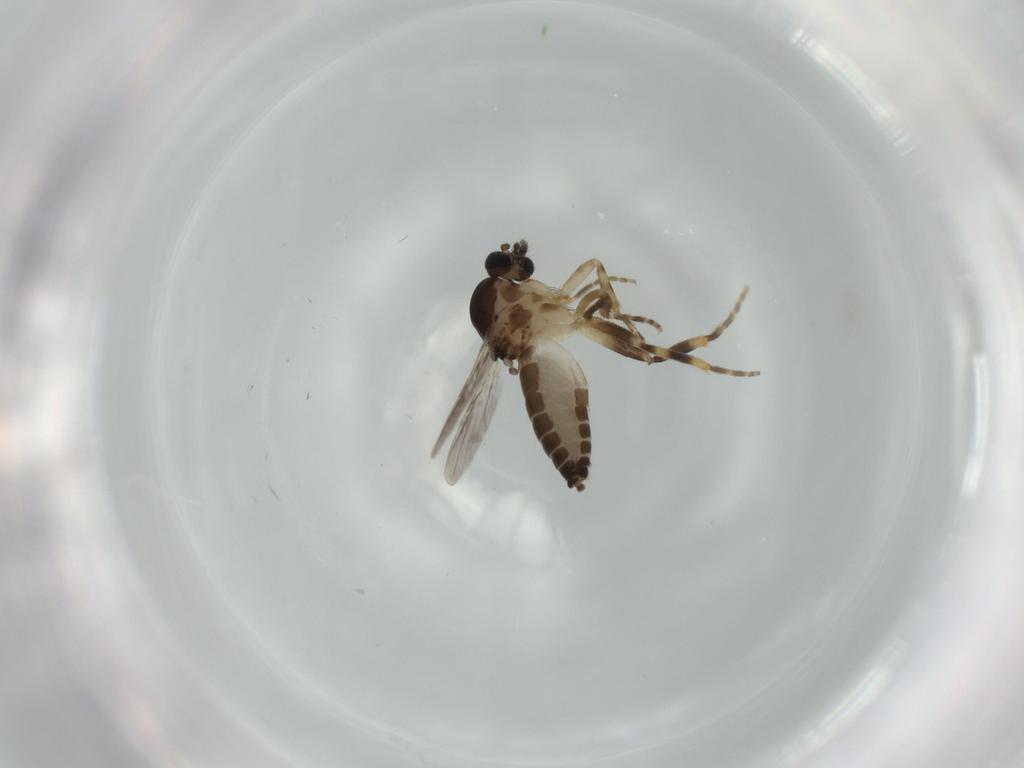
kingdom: Animalia
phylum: Arthropoda
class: Insecta
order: Diptera
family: Ceratopogonidae
